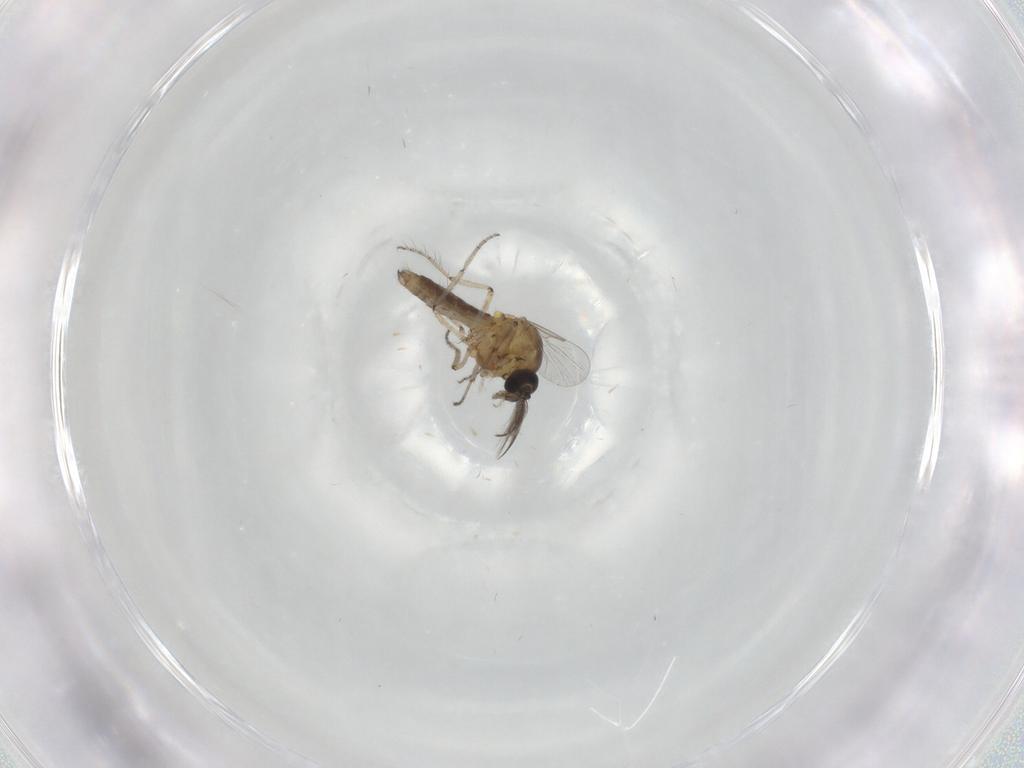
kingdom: Animalia
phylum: Arthropoda
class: Insecta
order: Diptera
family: Ceratopogonidae
